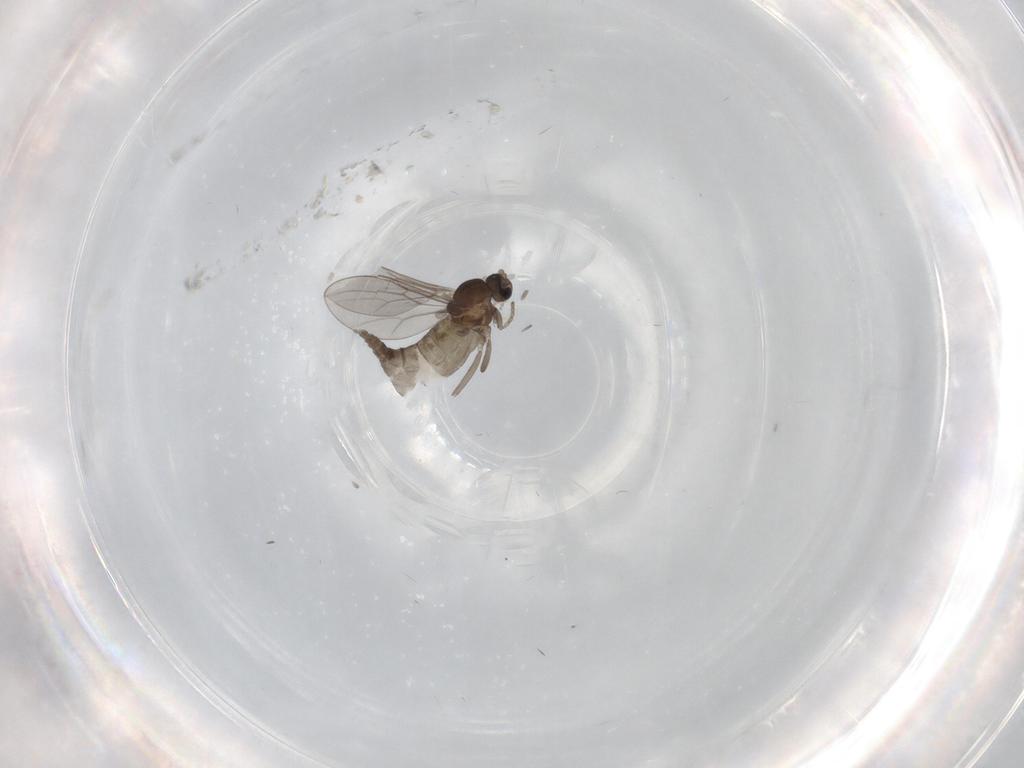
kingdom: Animalia
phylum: Arthropoda
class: Insecta
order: Diptera
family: Cecidomyiidae
